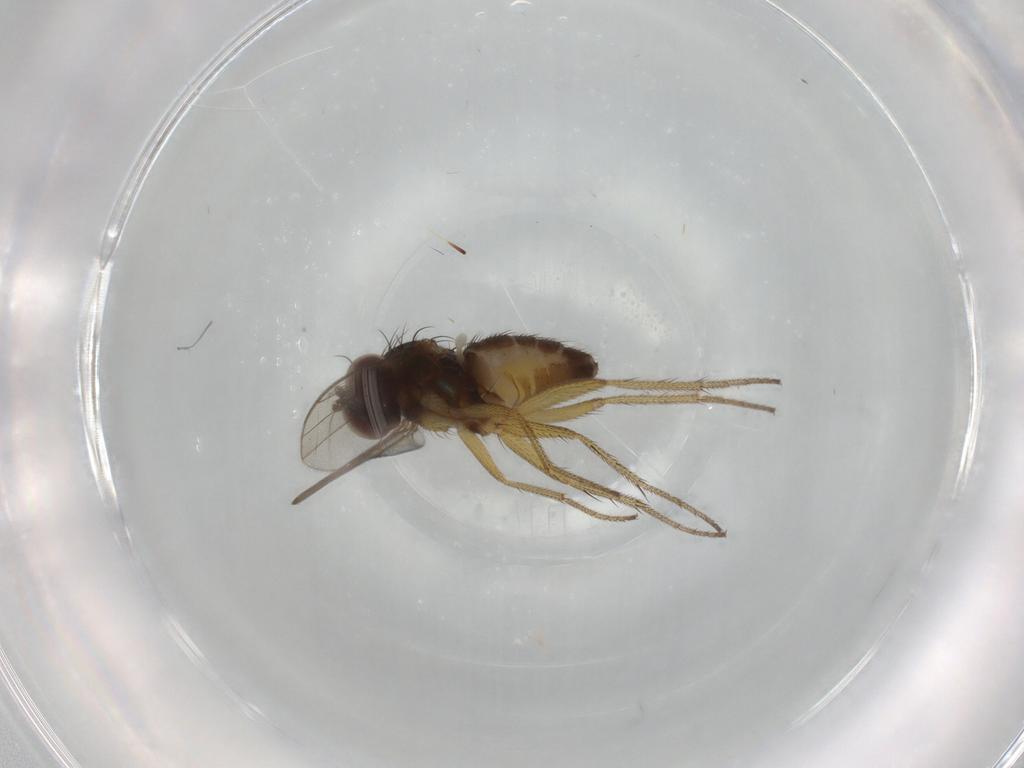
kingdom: Animalia
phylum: Arthropoda
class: Insecta
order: Diptera
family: Dolichopodidae
